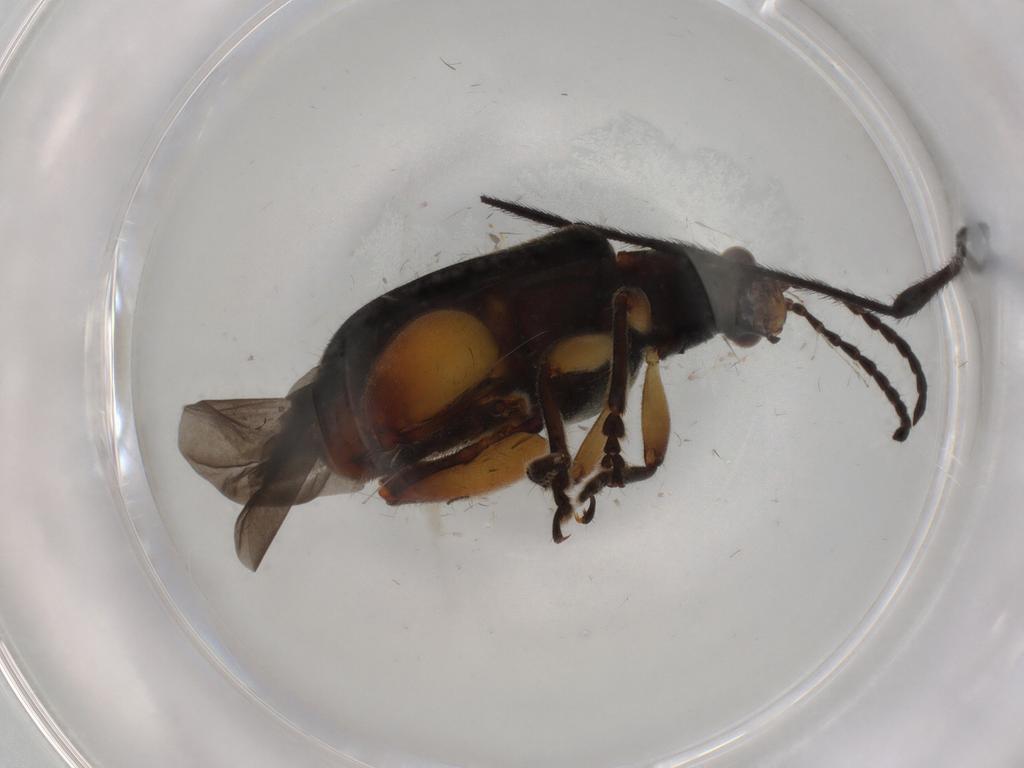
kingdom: Animalia
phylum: Arthropoda
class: Insecta
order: Coleoptera
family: Chrysomelidae
